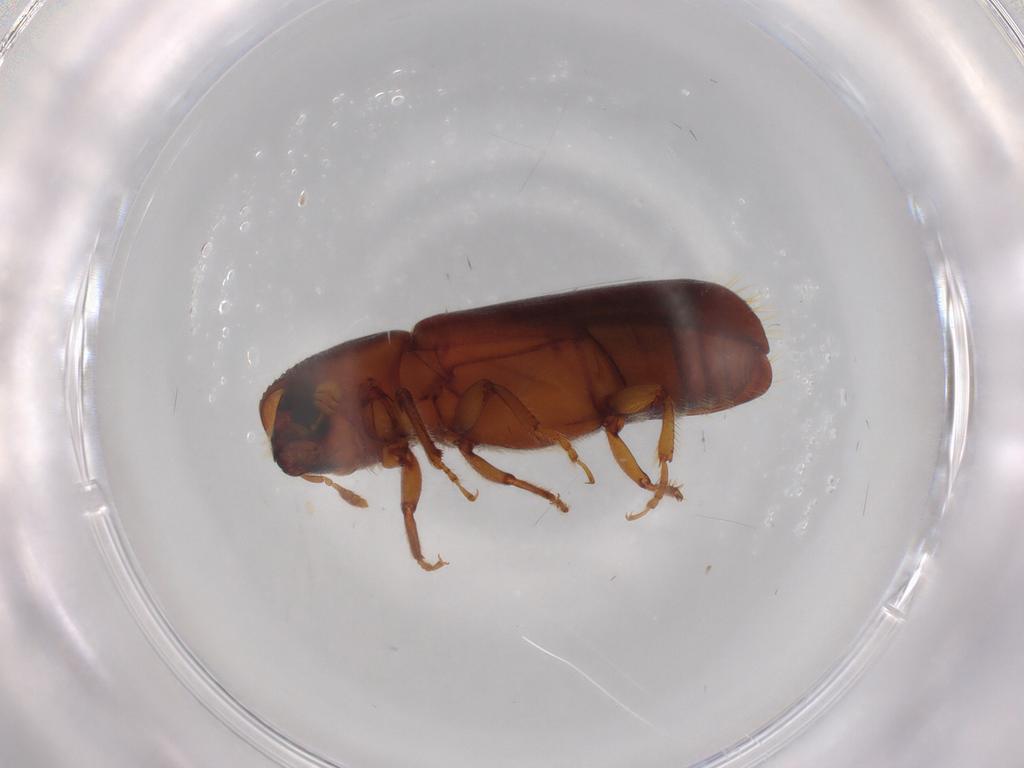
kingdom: Animalia
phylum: Arthropoda
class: Insecta
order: Coleoptera
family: Curculionidae
